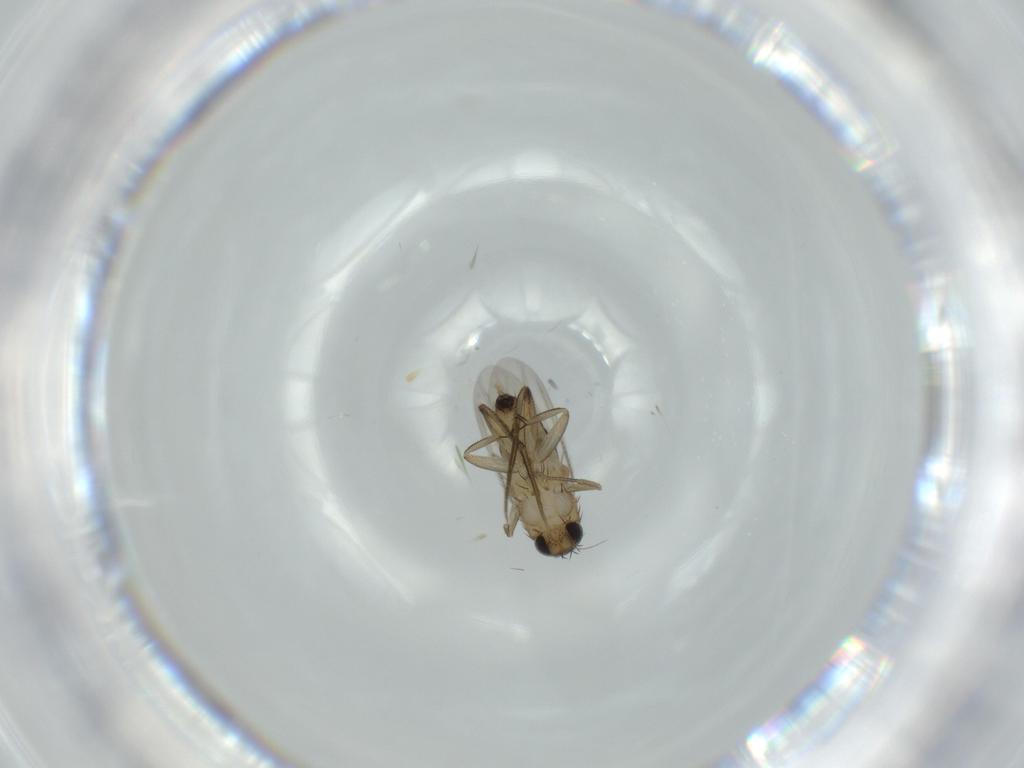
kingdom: Animalia
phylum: Arthropoda
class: Insecta
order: Diptera
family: Phoridae
